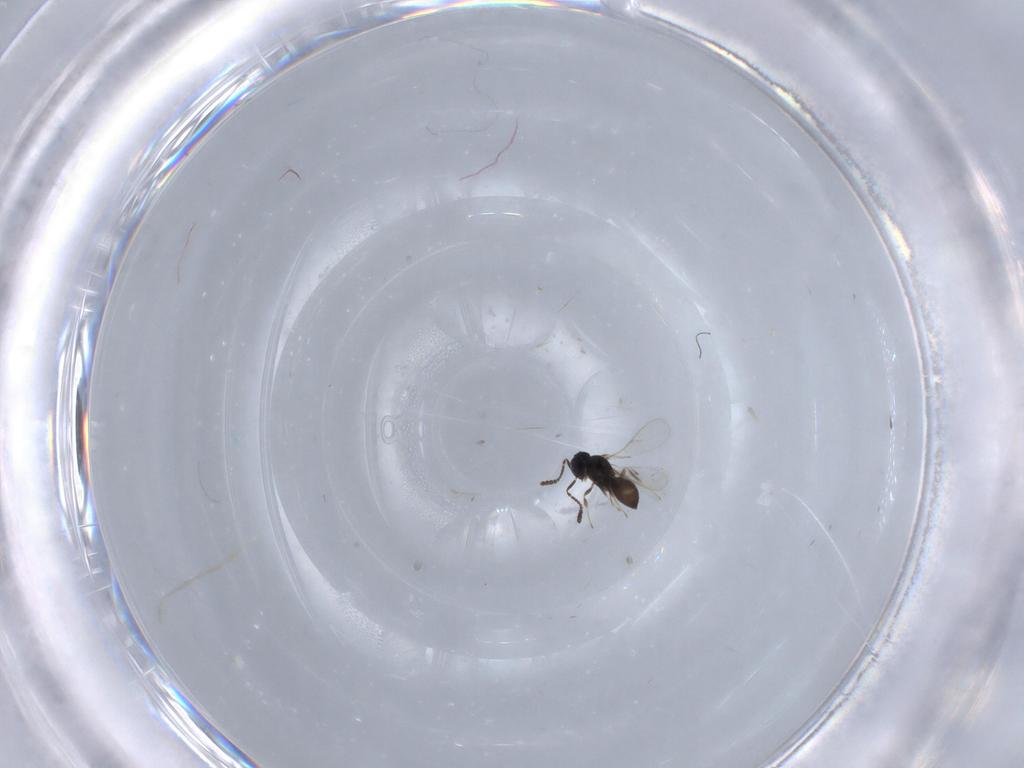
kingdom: Animalia
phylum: Arthropoda
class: Insecta
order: Hymenoptera
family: Scelionidae
